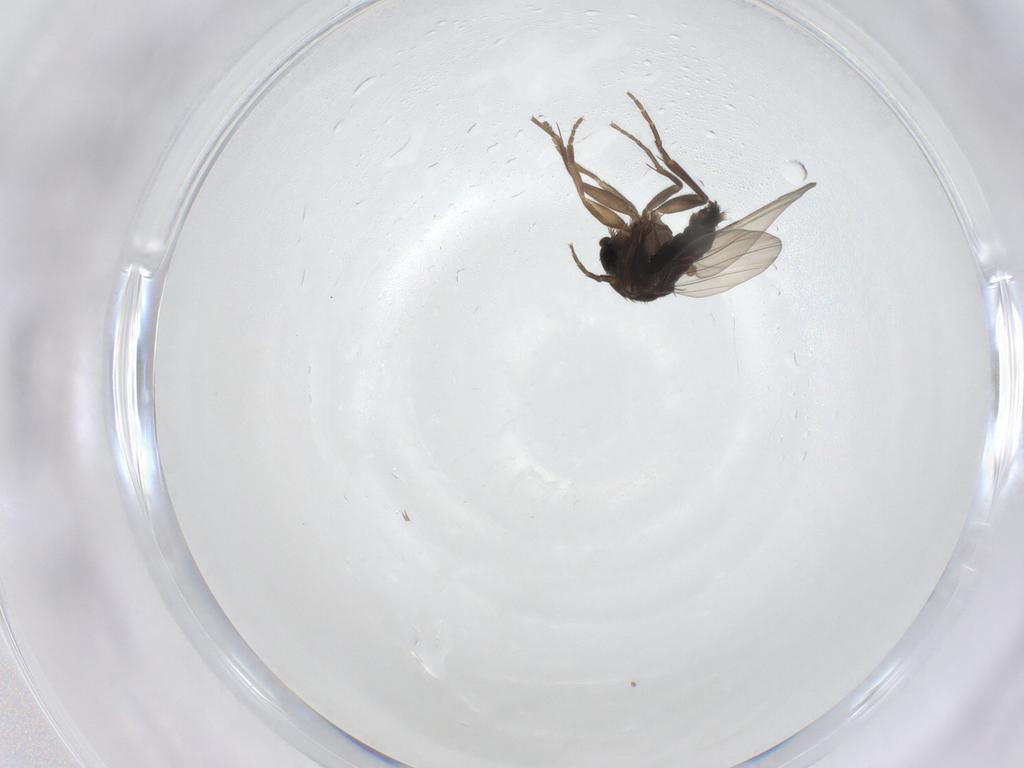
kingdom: Animalia
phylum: Arthropoda
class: Insecta
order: Diptera
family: Phoridae
